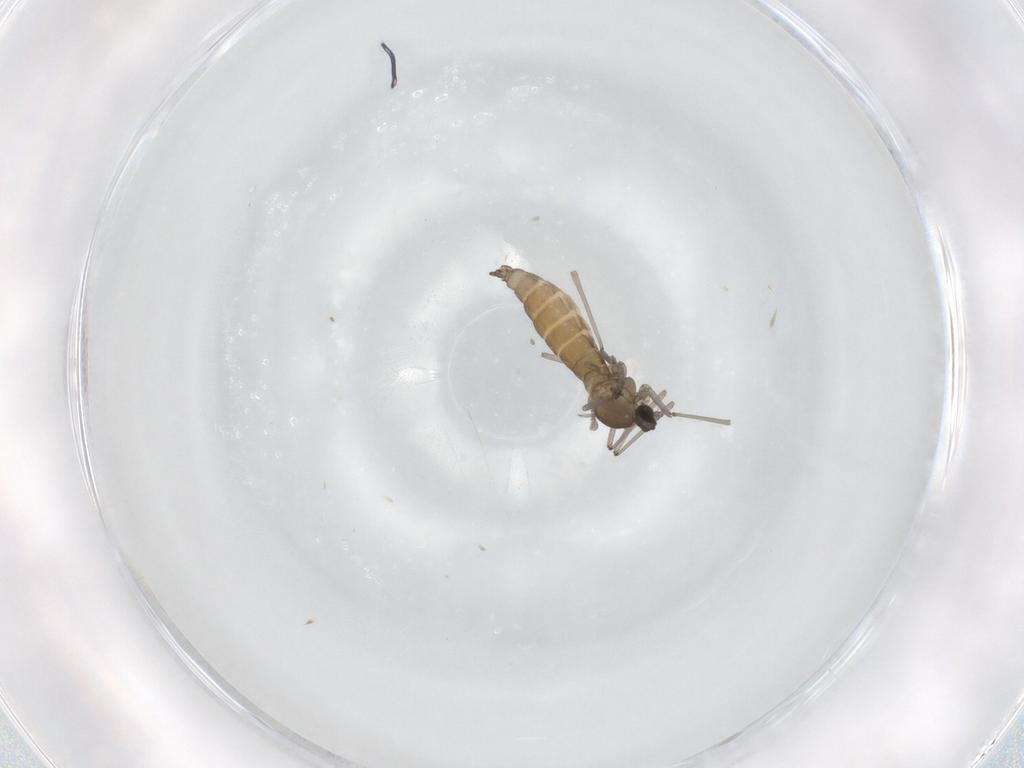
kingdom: Animalia
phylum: Arthropoda
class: Insecta
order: Diptera
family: Cecidomyiidae
